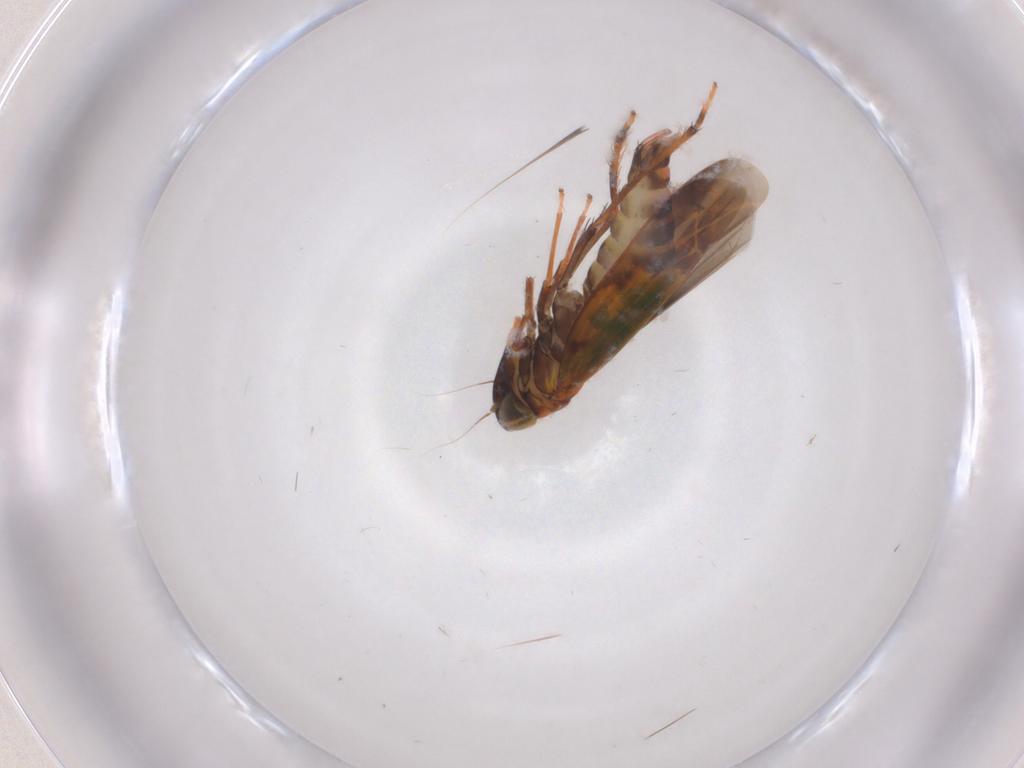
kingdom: Animalia
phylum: Arthropoda
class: Insecta
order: Hemiptera
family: Cicadellidae
